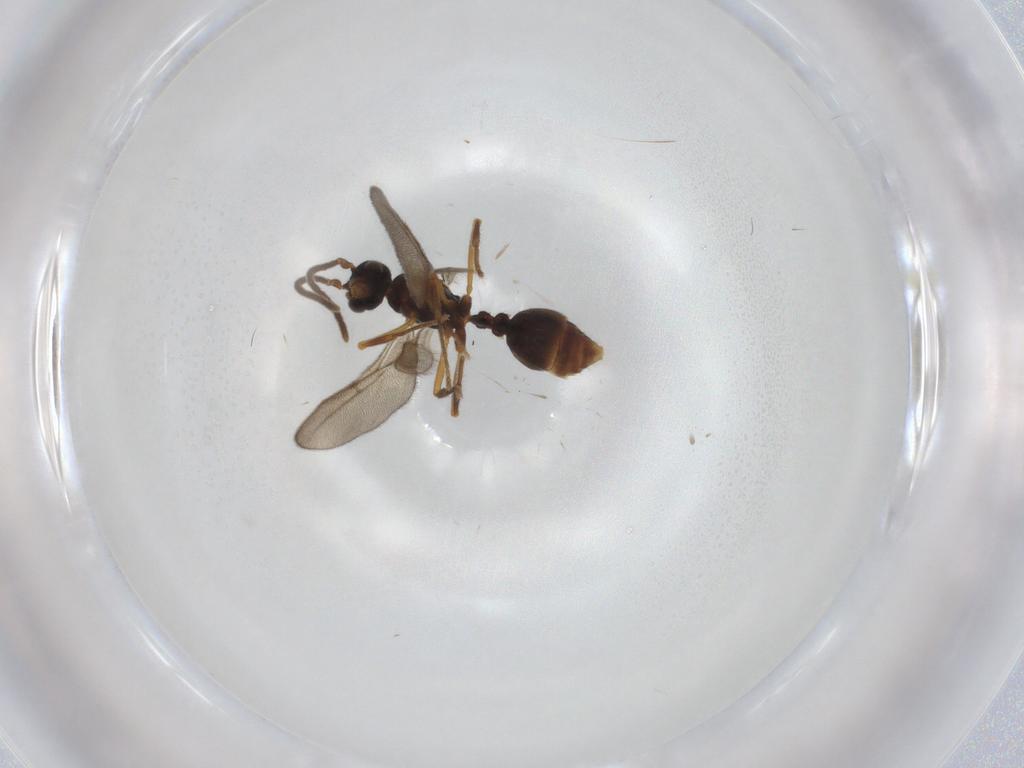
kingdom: Animalia
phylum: Arthropoda
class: Insecta
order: Hymenoptera
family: Formicidae
